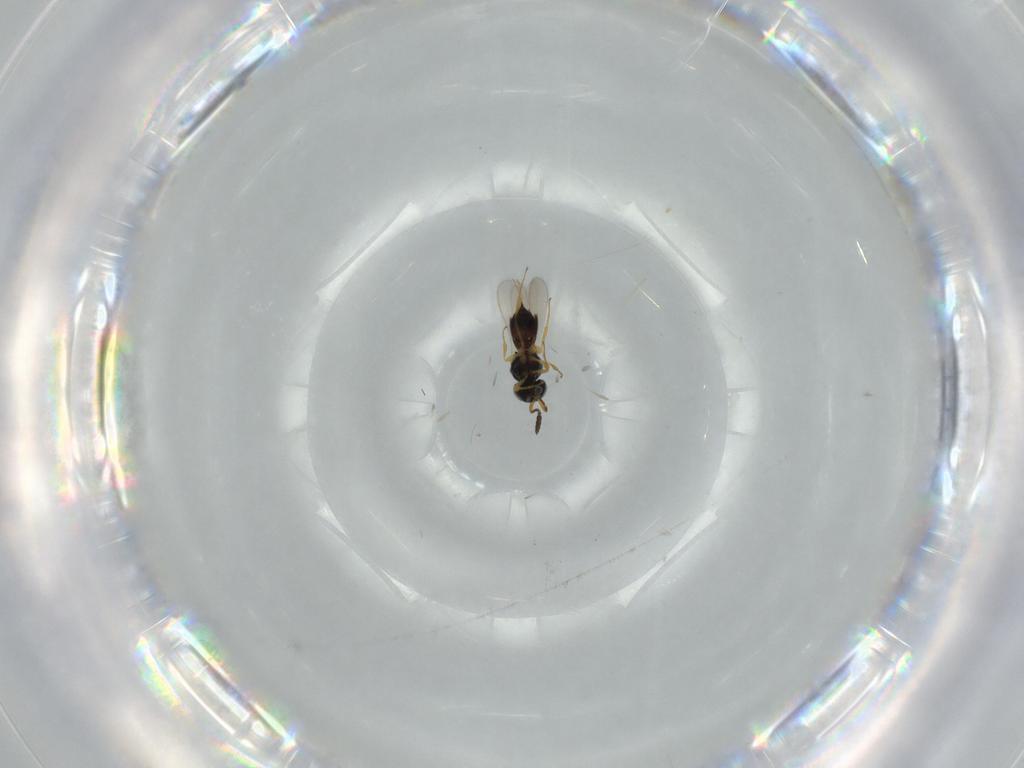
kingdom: Animalia
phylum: Arthropoda
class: Insecta
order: Hymenoptera
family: Scelionidae
